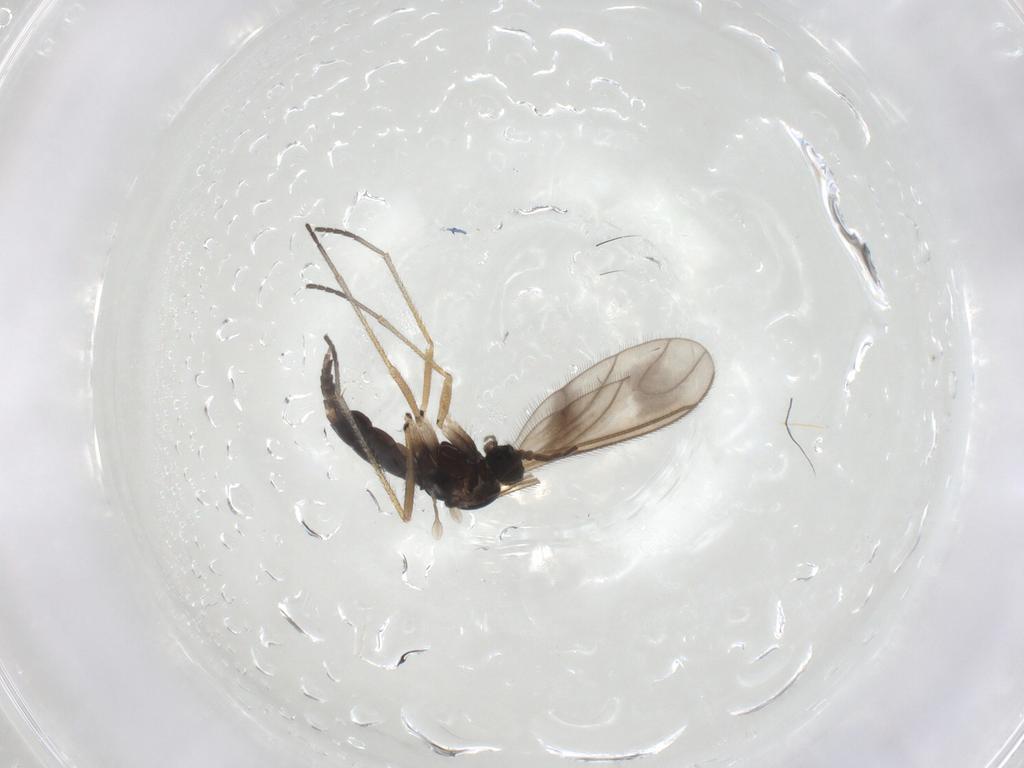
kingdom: Animalia
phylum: Arthropoda
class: Insecta
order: Diptera
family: Sciaridae
